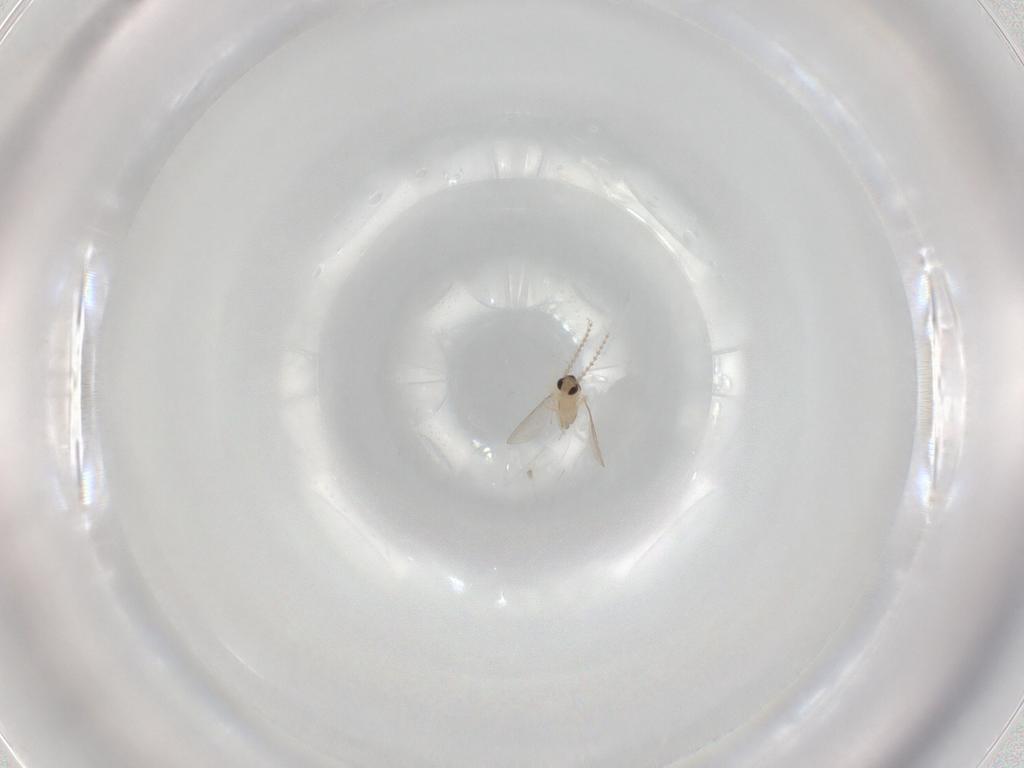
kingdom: Animalia
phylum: Arthropoda
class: Insecta
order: Diptera
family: Cecidomyiidae
